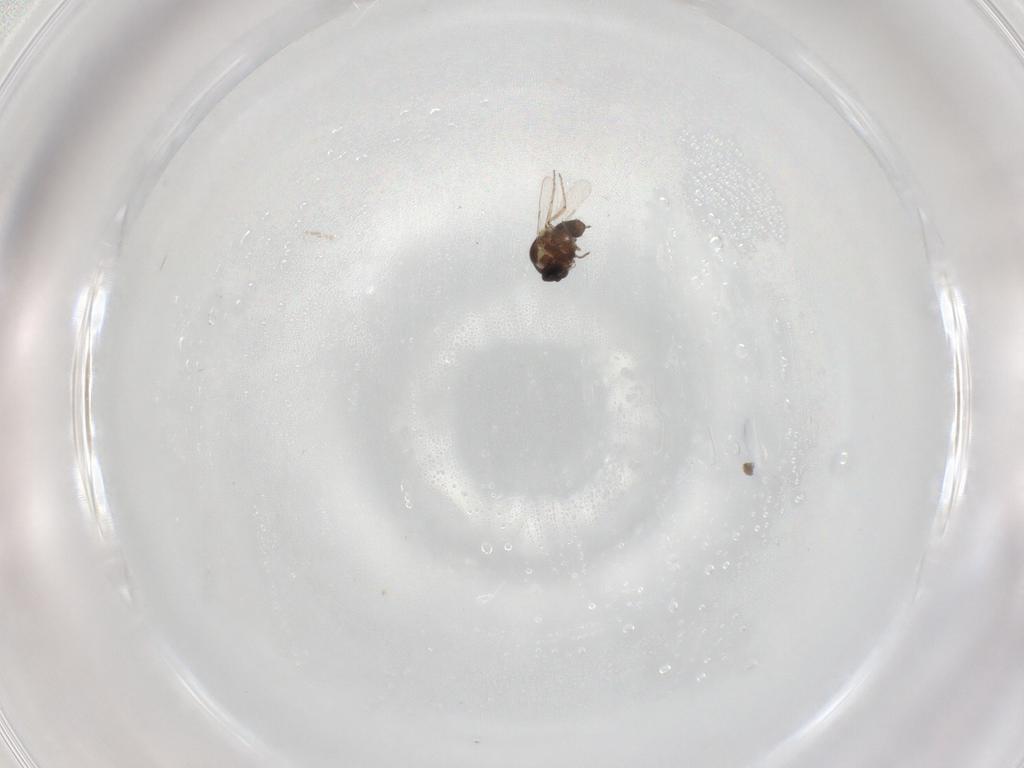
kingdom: Animalia
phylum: Arthropoda
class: Insecta
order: Diptera
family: Ceratopogonidae
